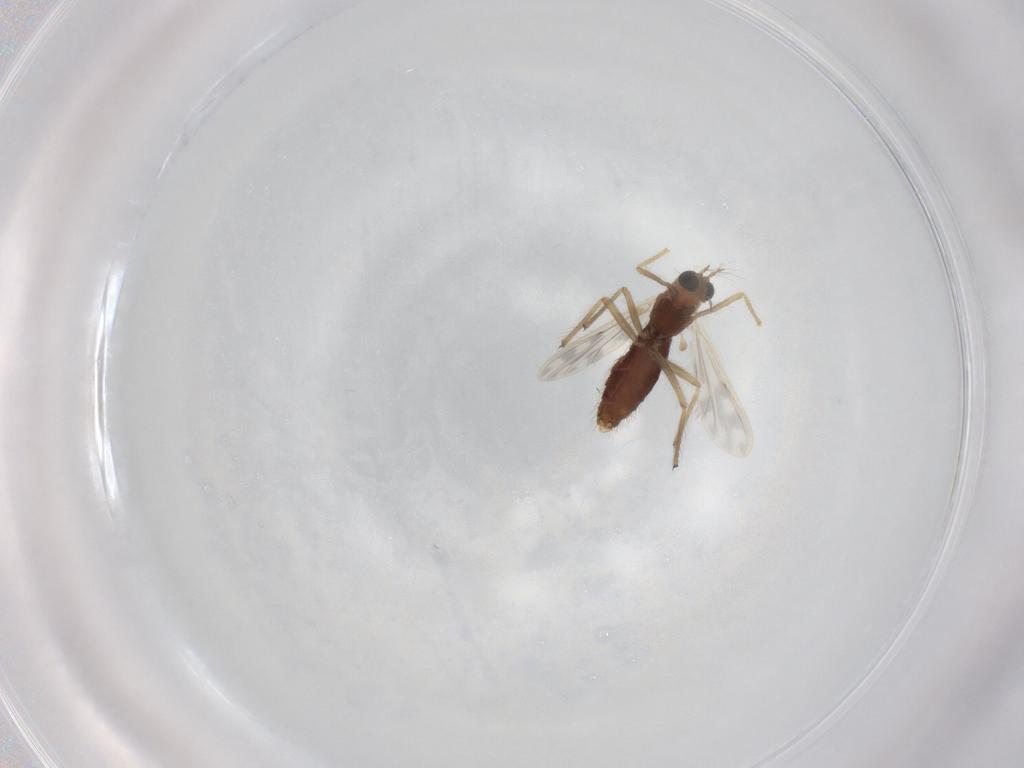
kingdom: Animalia
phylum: Arthropoda
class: Insecta
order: Diptera
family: Chironomidae
